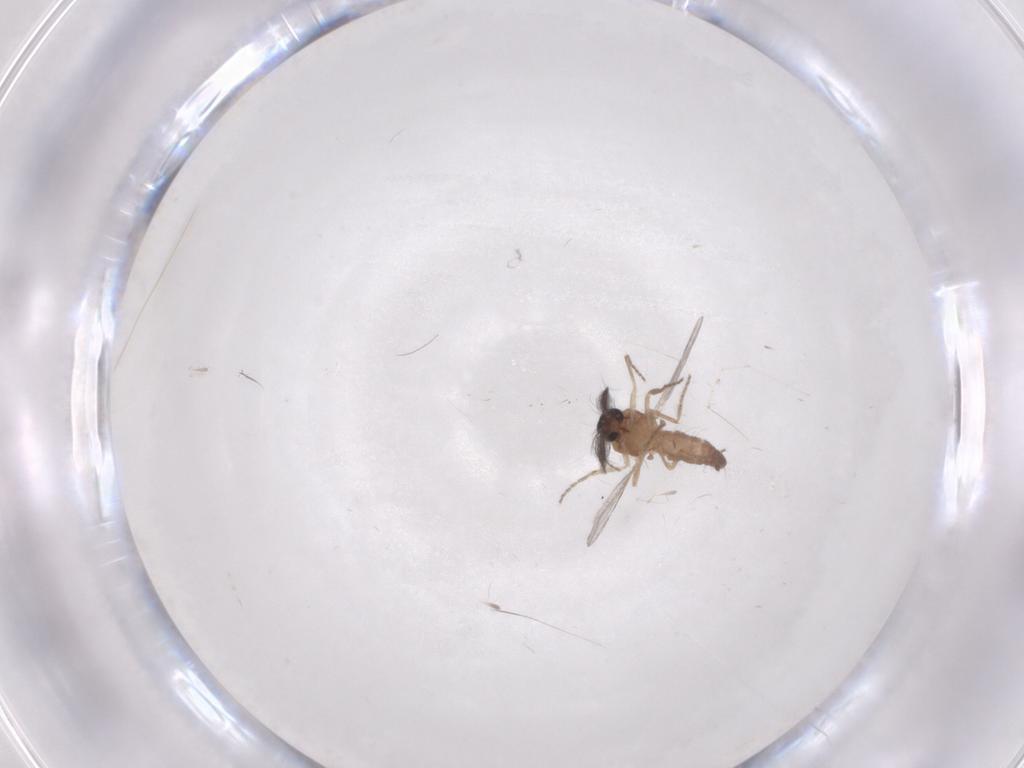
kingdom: Animalia
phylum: Arthropoda
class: Insecta
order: Diptera
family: Ceratopogonidae
